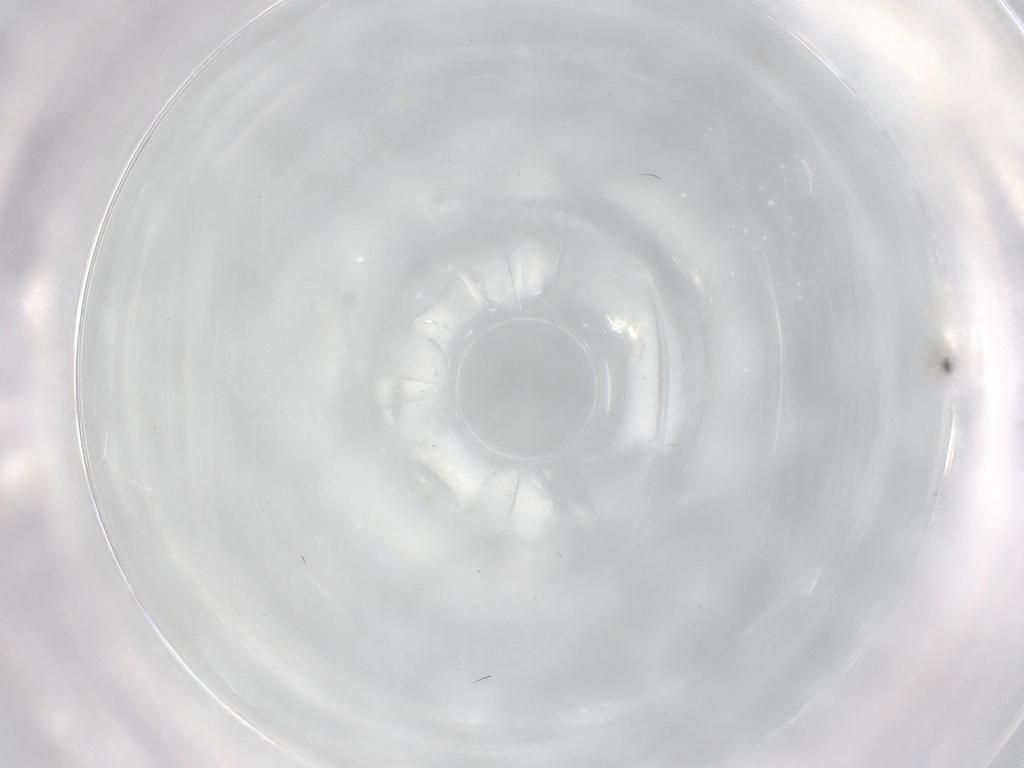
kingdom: Animalia
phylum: Arthropoda
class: Insecta
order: Diptera
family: Cecidomyiidae
